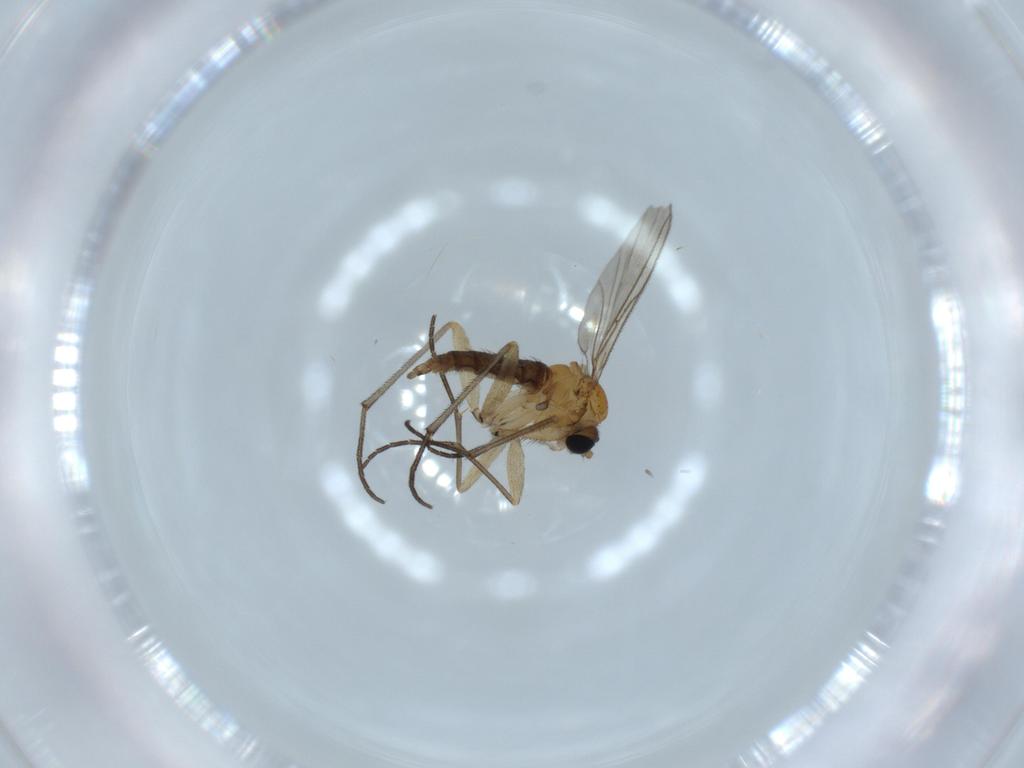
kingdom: Animalia
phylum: Arthropoda
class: Insecta
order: Diptera
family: Sciaridae
